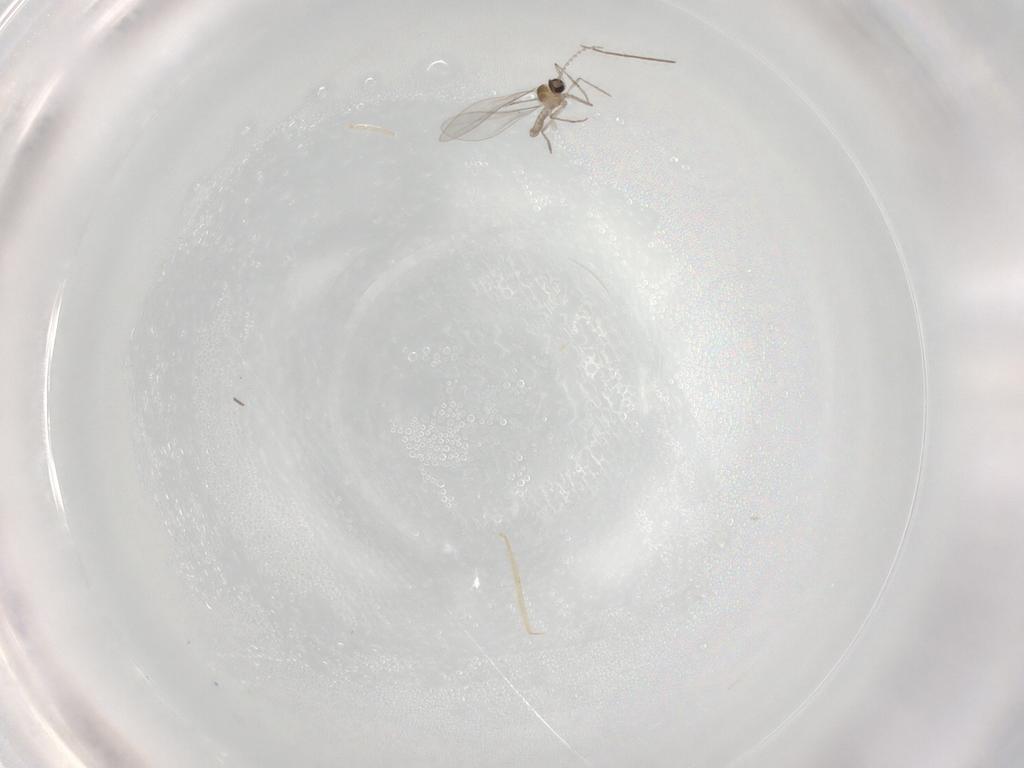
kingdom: Animalia
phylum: Arthropoda
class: Insecta
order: Diptera
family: Cecidomyiidae
